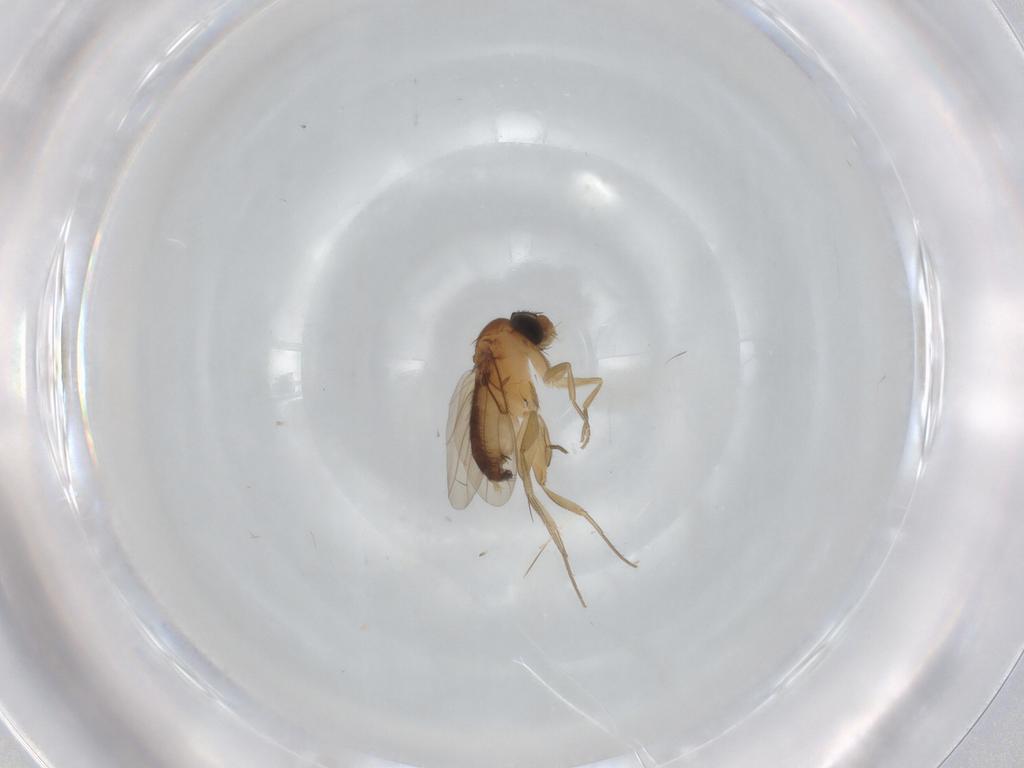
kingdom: Animalia
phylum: Arthropoda
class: Insecta
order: Diptera
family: Phoridae
